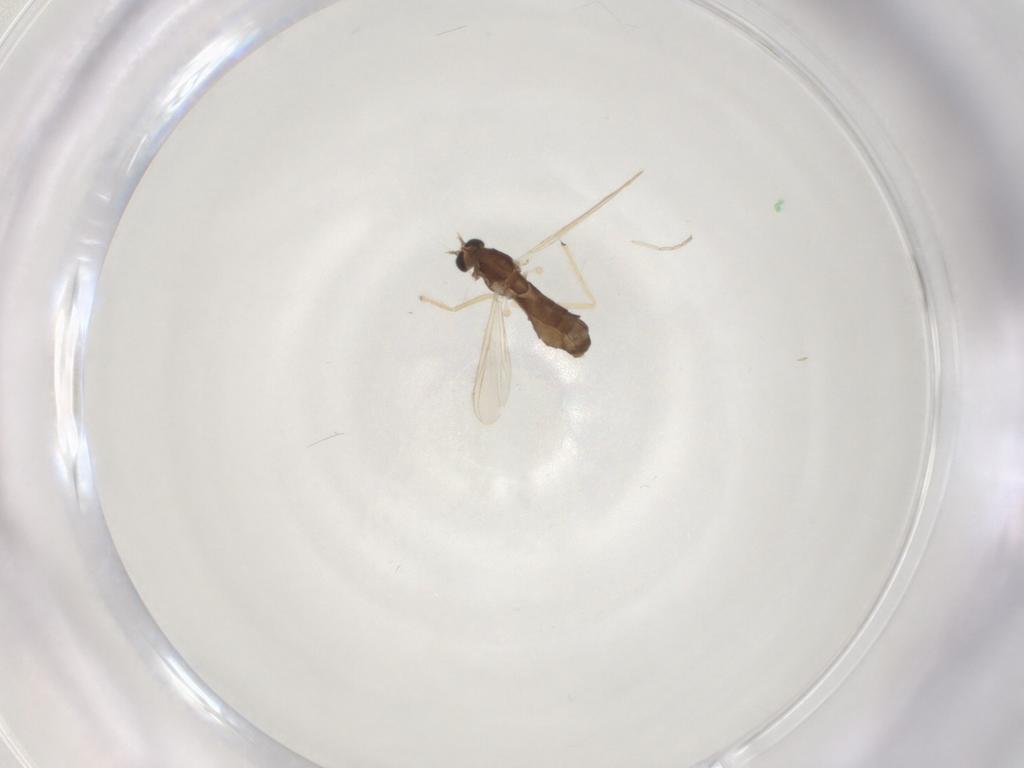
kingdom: Animalia
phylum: Arthropoda
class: Insecta
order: Diptera
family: Chironomidae
